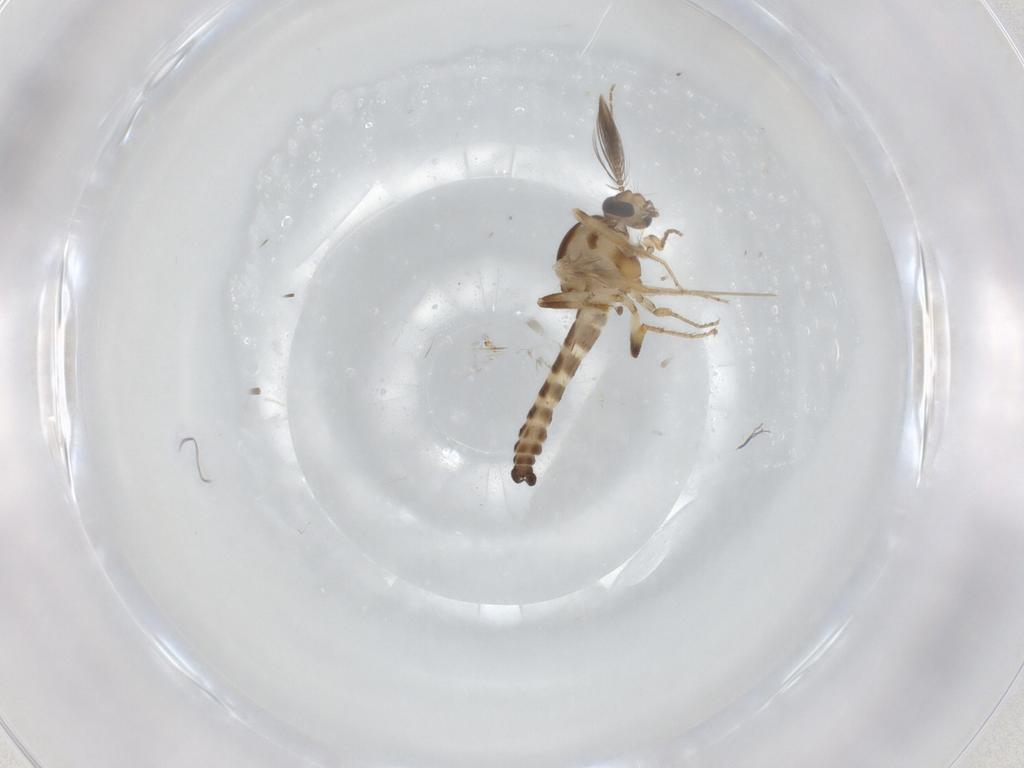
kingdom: Animalia
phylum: Arthropoda
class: Insecta
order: Diptera
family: Ceratopogonidae
